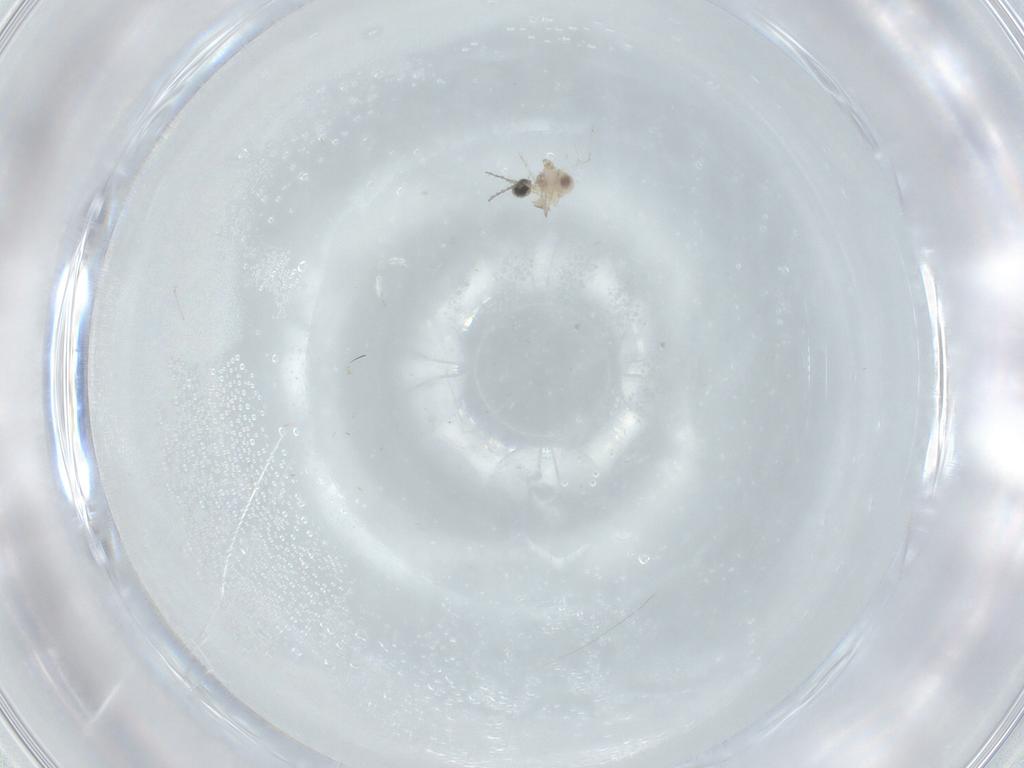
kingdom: Animalia
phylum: Arthropoda
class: Insecta
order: Diptera
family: Cecidomyiidae
